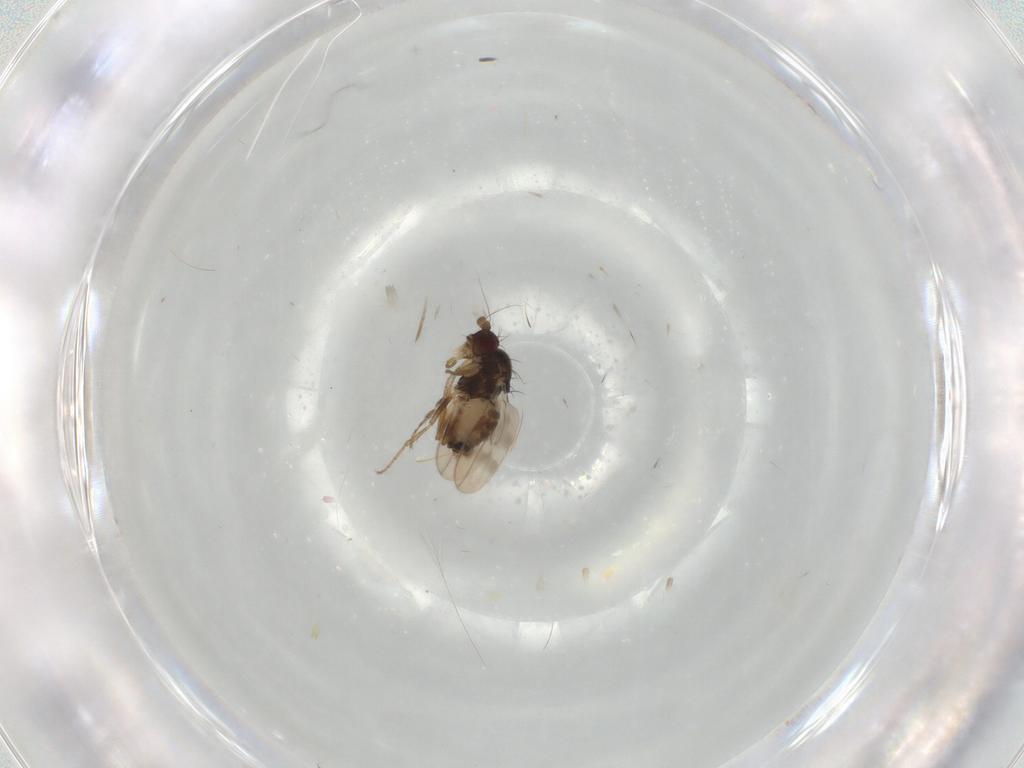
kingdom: Animalia
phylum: Arthropoda
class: Insecta
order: Diptera
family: Sphaeroceridae
